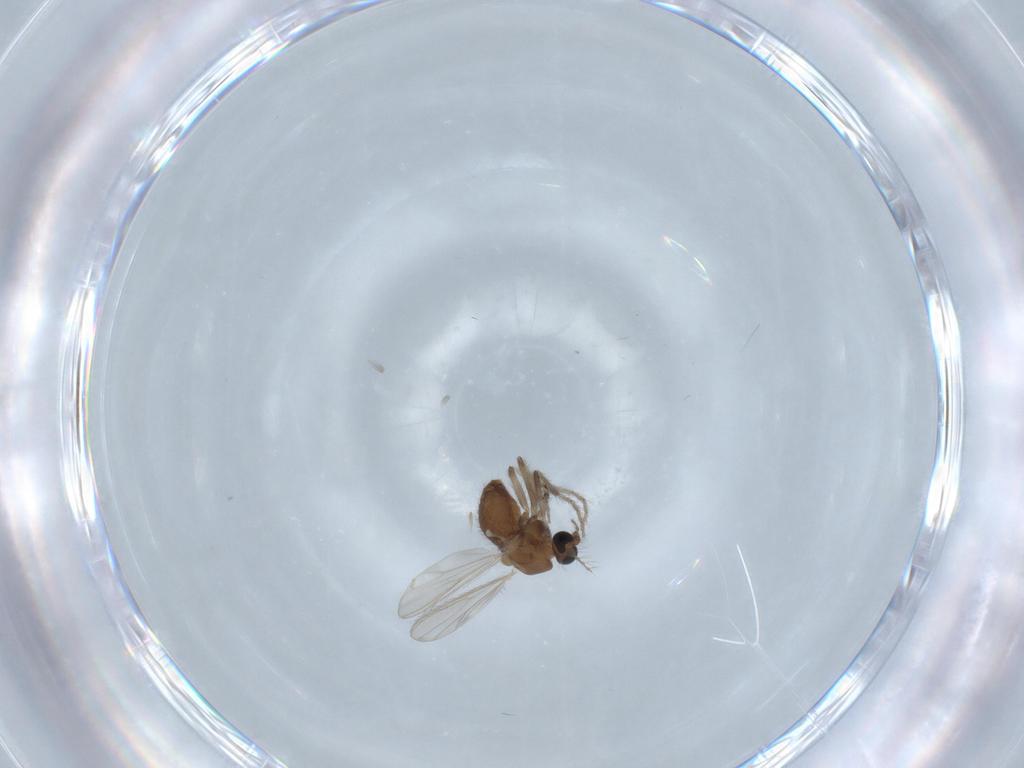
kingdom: Animalia
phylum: Arthropoda
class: Insecta
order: Diptera
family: Chironomidae
